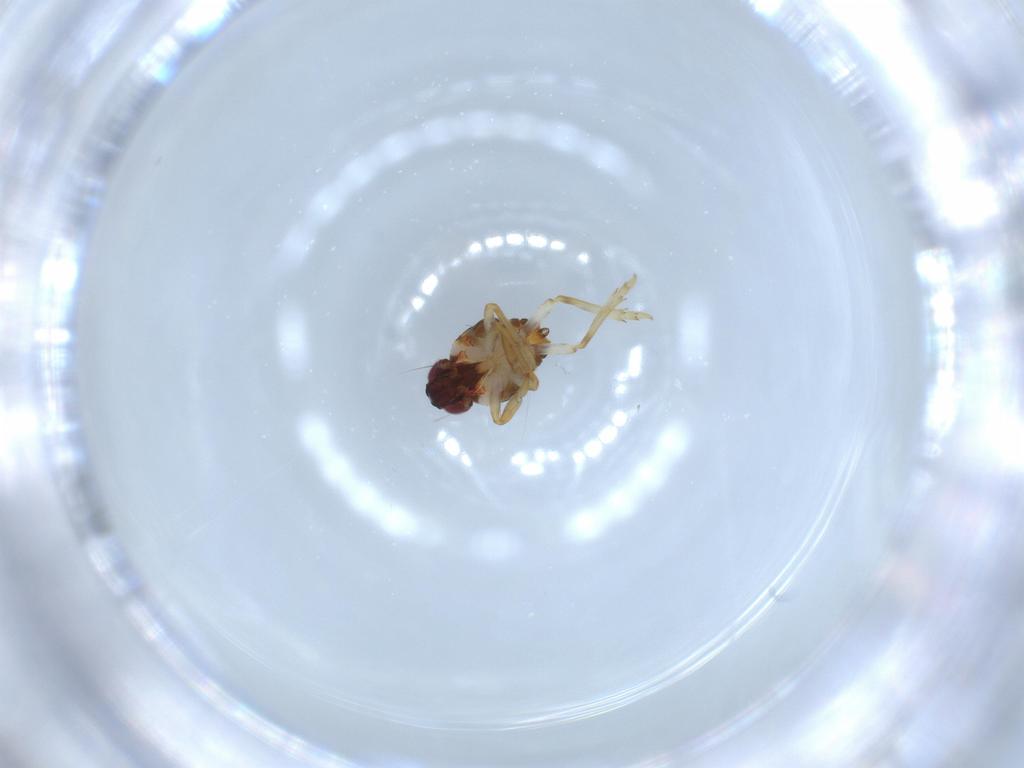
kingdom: Animalia
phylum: Arthropoda
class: Insecta
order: Hemiptera
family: Issidae
